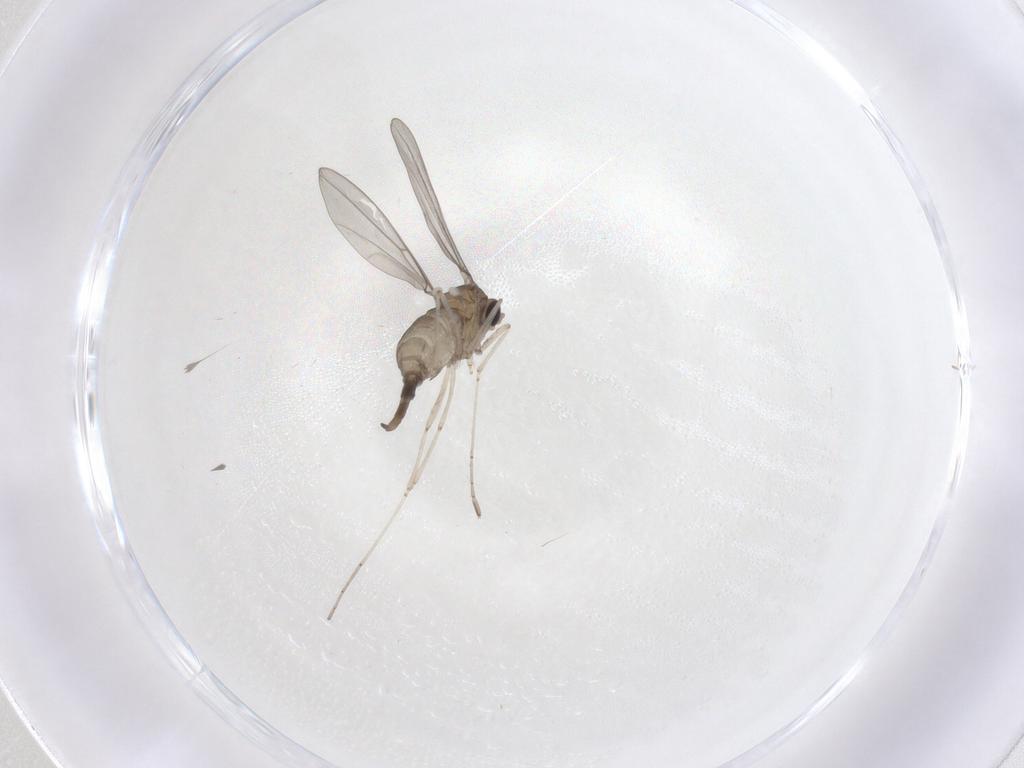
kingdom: Animalia
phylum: Arthropoda
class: Insecta
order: Diptera
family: Cecidomyiidae
